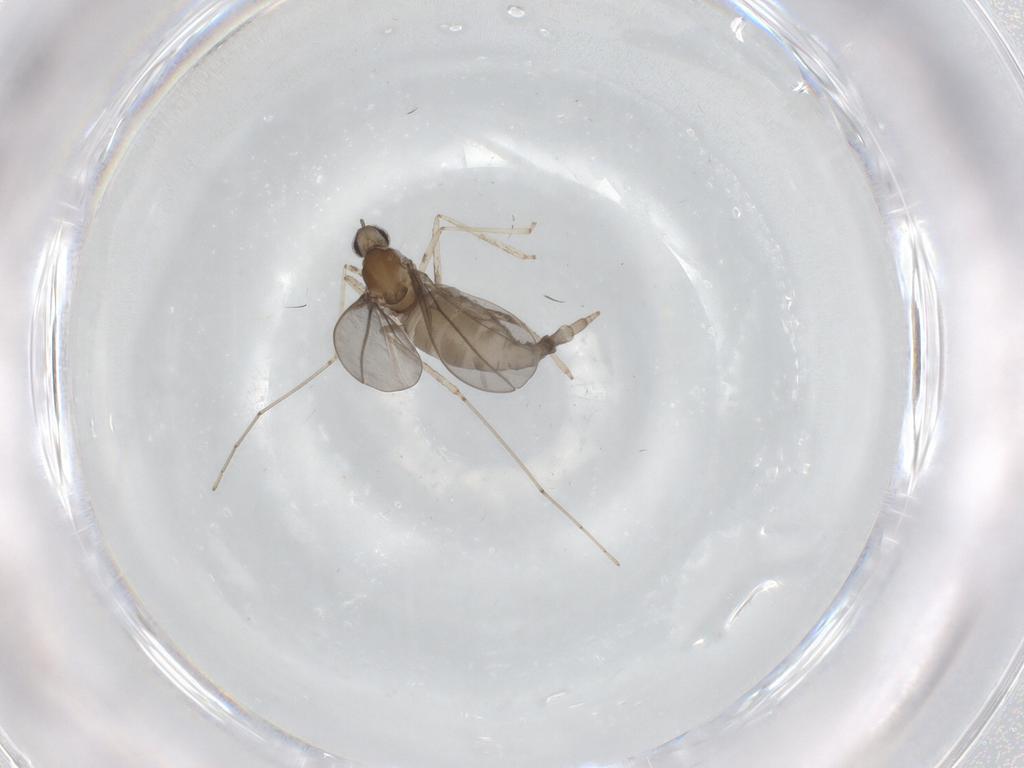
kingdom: Animalia
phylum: Arthropoda
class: Insecta
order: Diptera
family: Cecidomyiidae
